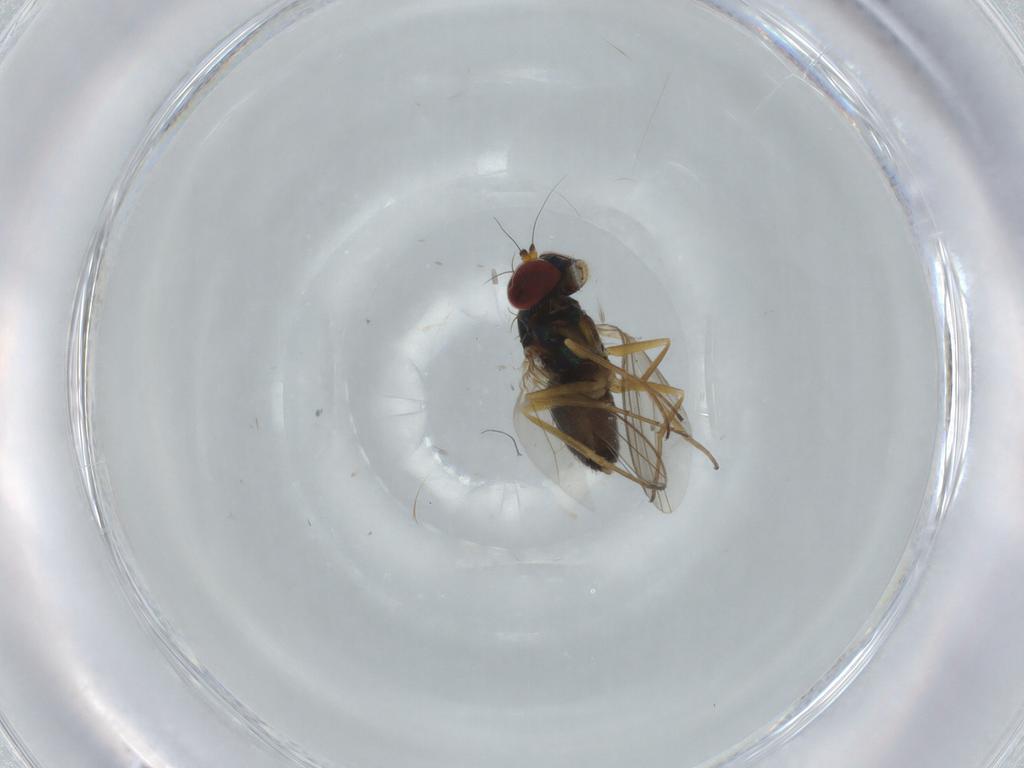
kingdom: Animalia
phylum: Arthropoda
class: Insecta
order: Diptera
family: Dolichopodidae
